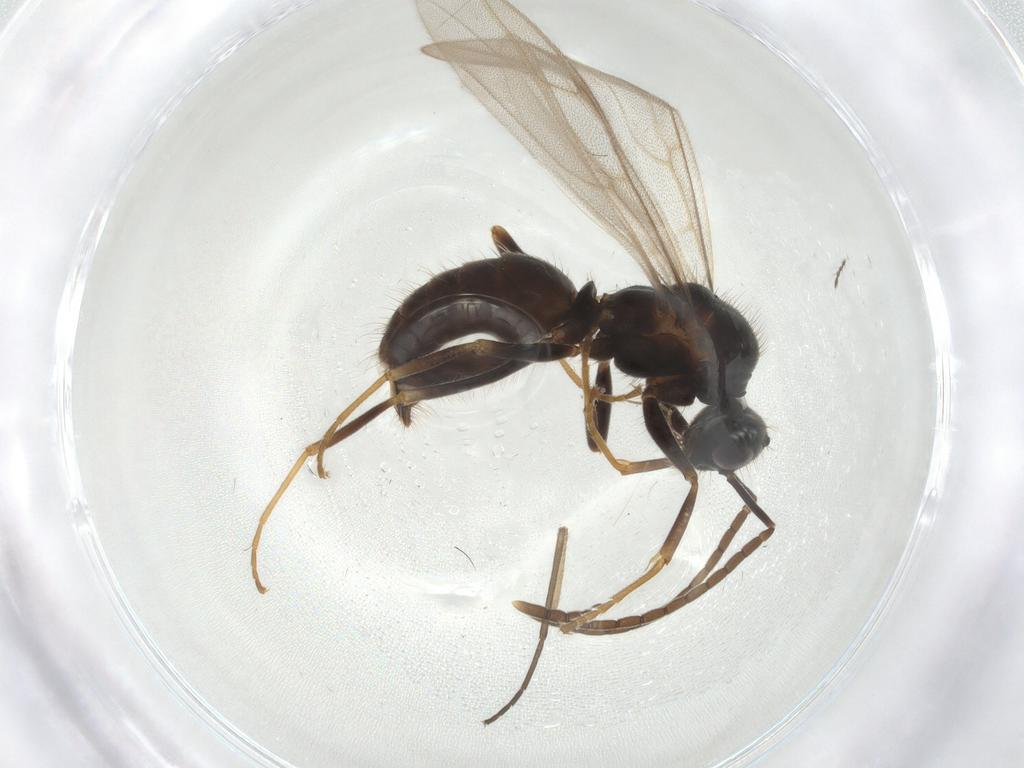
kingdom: Animalia
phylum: Arthropoda
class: Insecta
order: Hymenoptera
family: Formicidae
